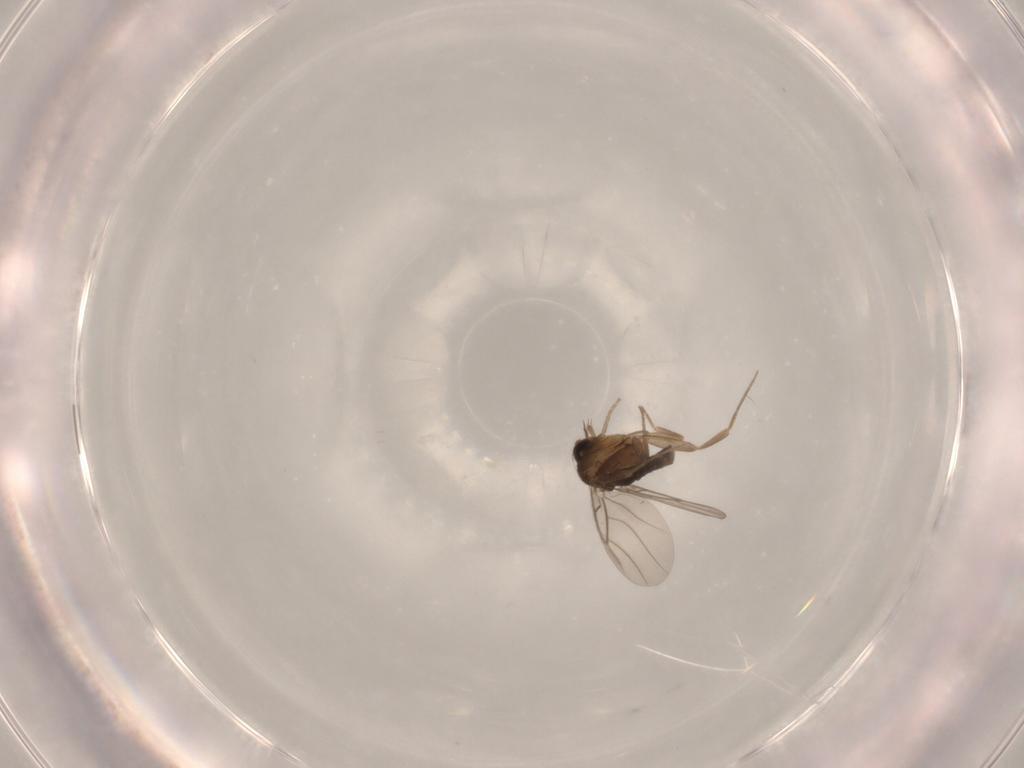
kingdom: Animalia
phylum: Arthropoda
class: Insecta
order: Diptera
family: Phoridae
